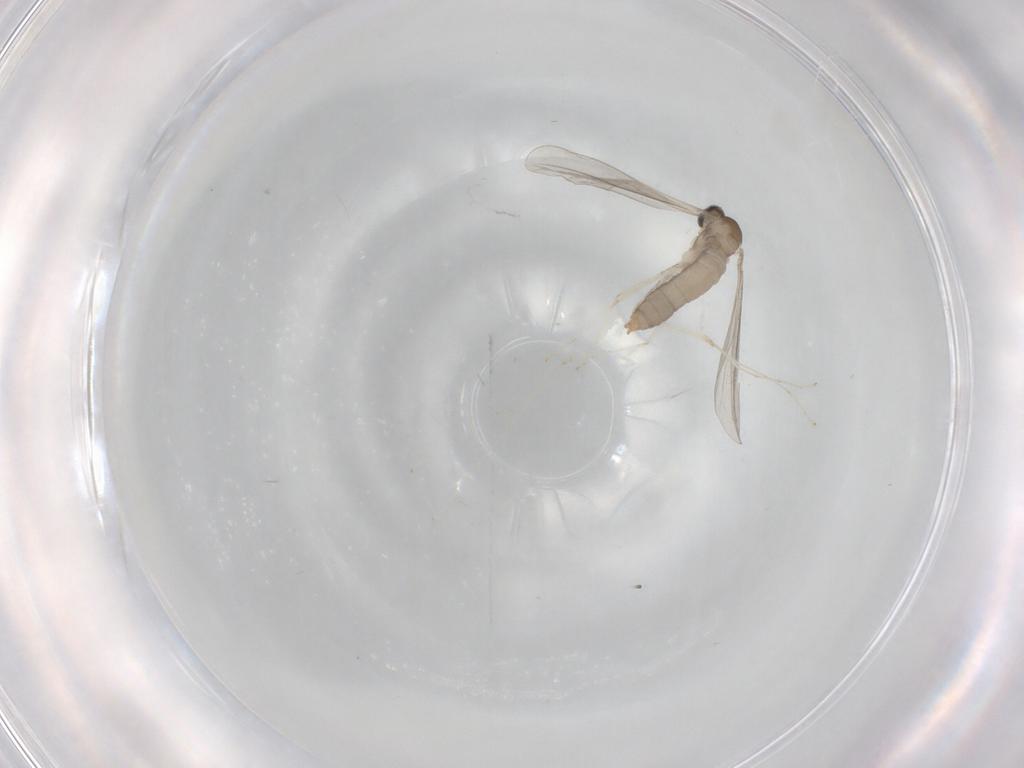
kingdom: Animalia
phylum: Arthropoda
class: Insecta
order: Diptera
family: Cecidomyiidae
